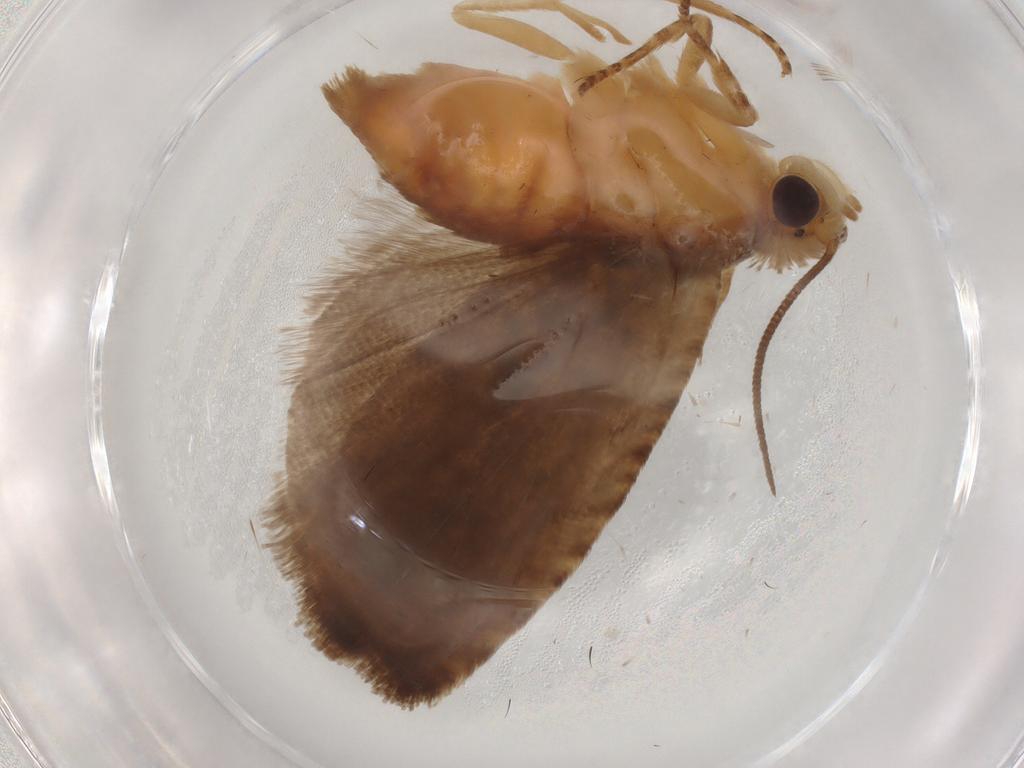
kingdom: Animalia
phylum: Arthropoda
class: Insecta
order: Lepidoptera
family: Tortricidae
